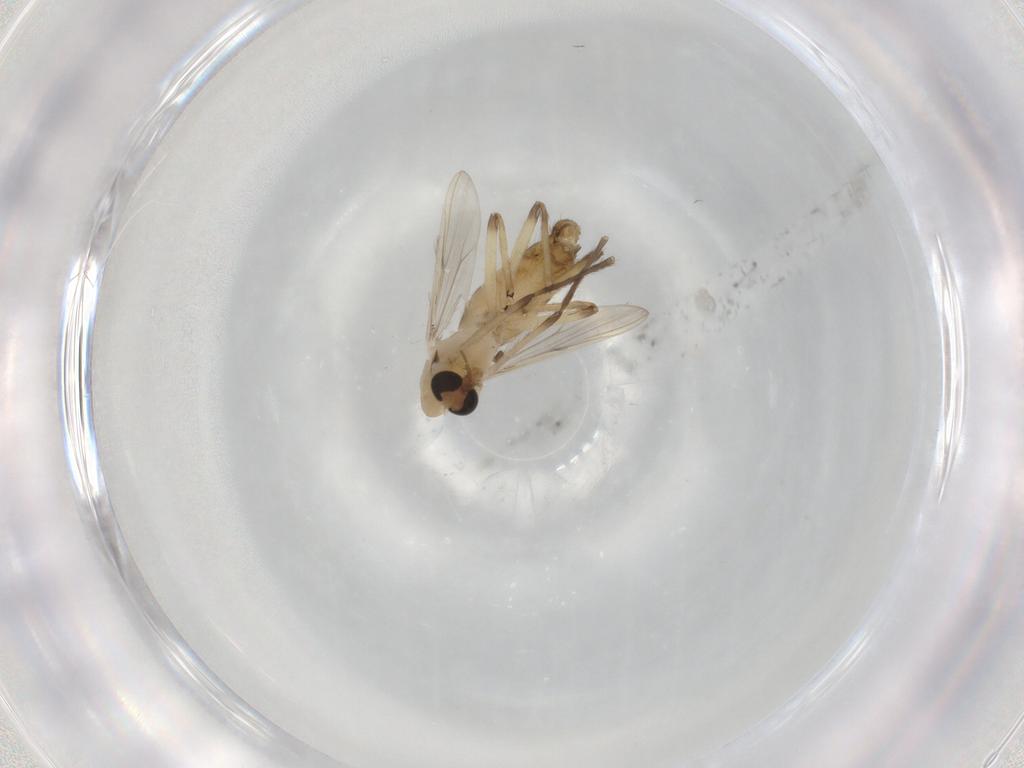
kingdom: Animalia
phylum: Arthropoda
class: Insecta
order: Diptera
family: Chironomidae
